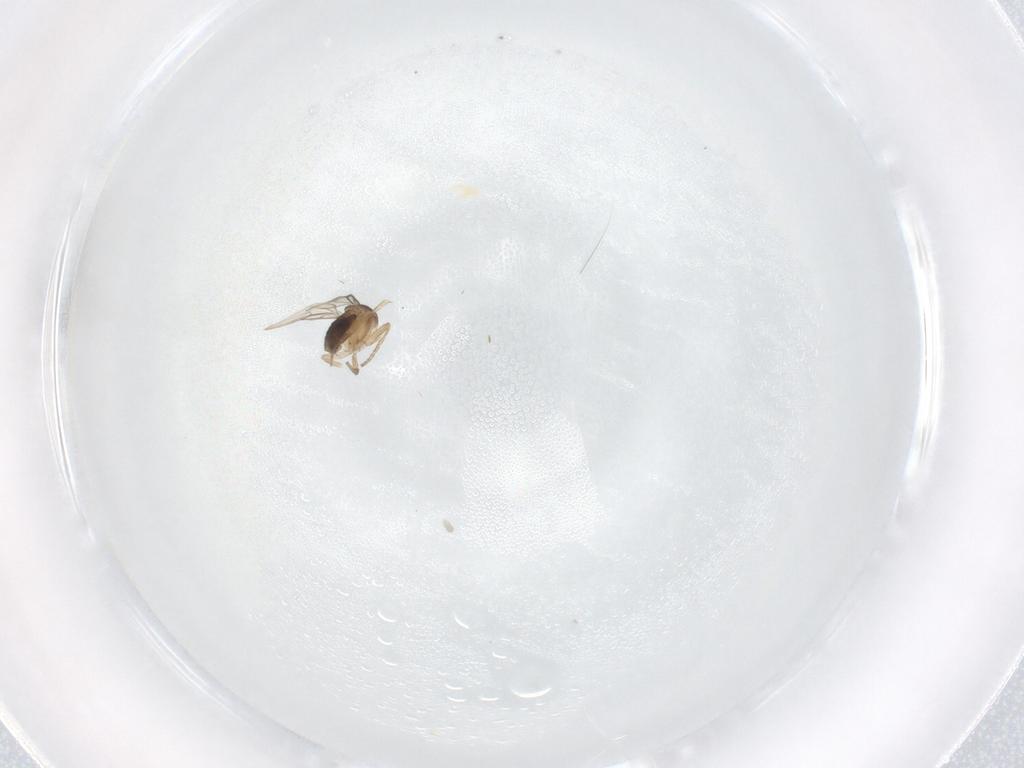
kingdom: Animalia
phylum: Arthropoda
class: Insecta
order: Diptera
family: Phoridae
